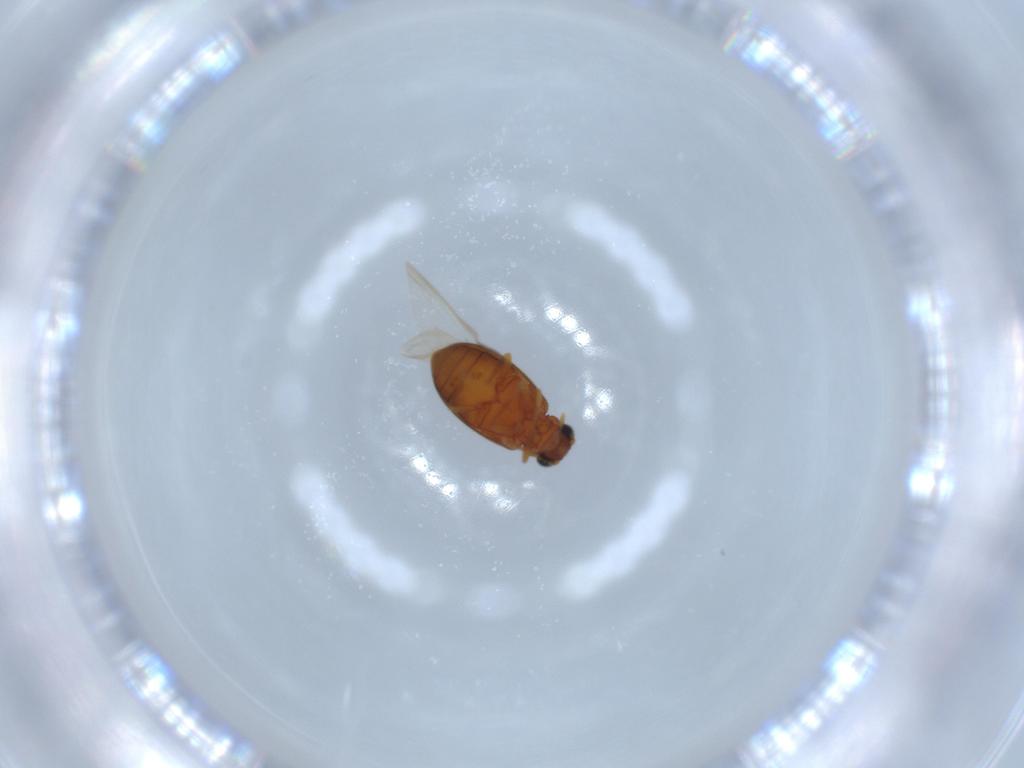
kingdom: Animalia
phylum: Arthropoda
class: Insecta
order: Coleoptera
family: Aderidae
